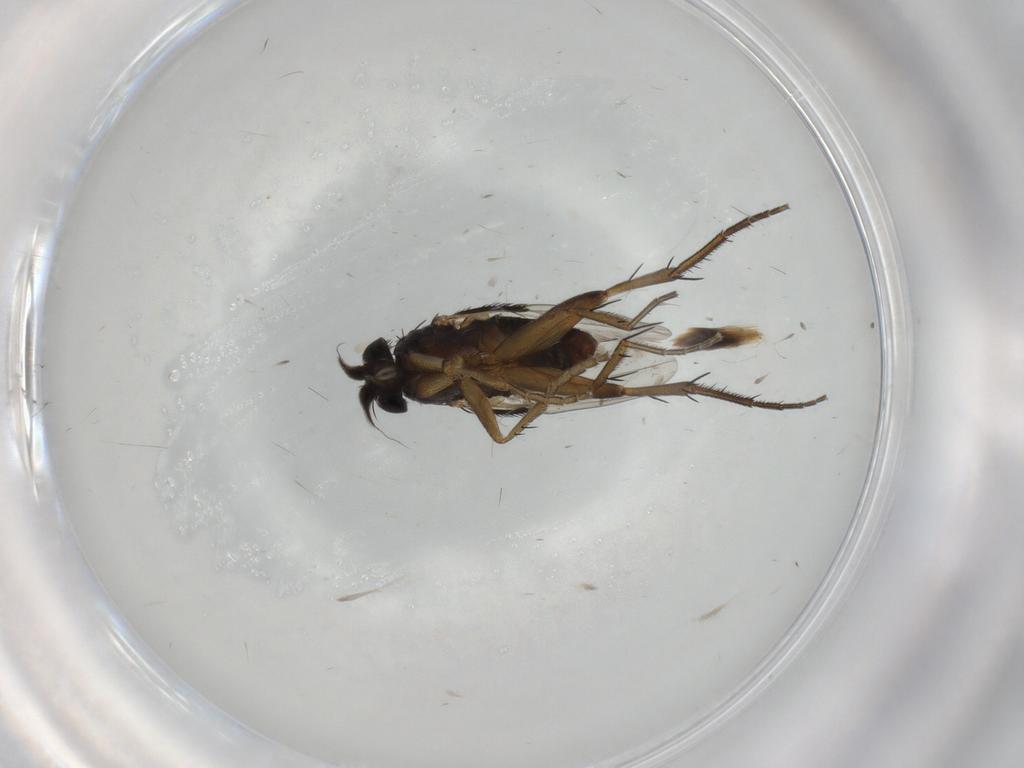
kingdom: Animalia
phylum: Arthropoda
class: Insecta
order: Diptera
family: Phoridae
